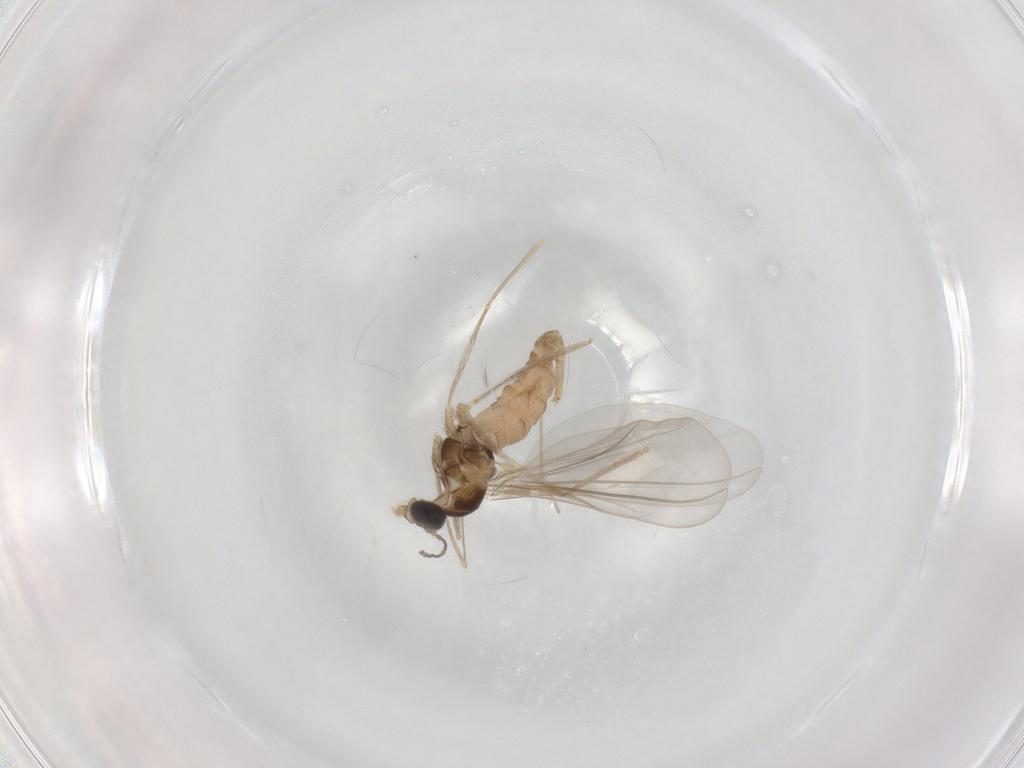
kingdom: Animalia
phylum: Arthropoda
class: Insecta
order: Diptera
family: Cecidomyiidae
